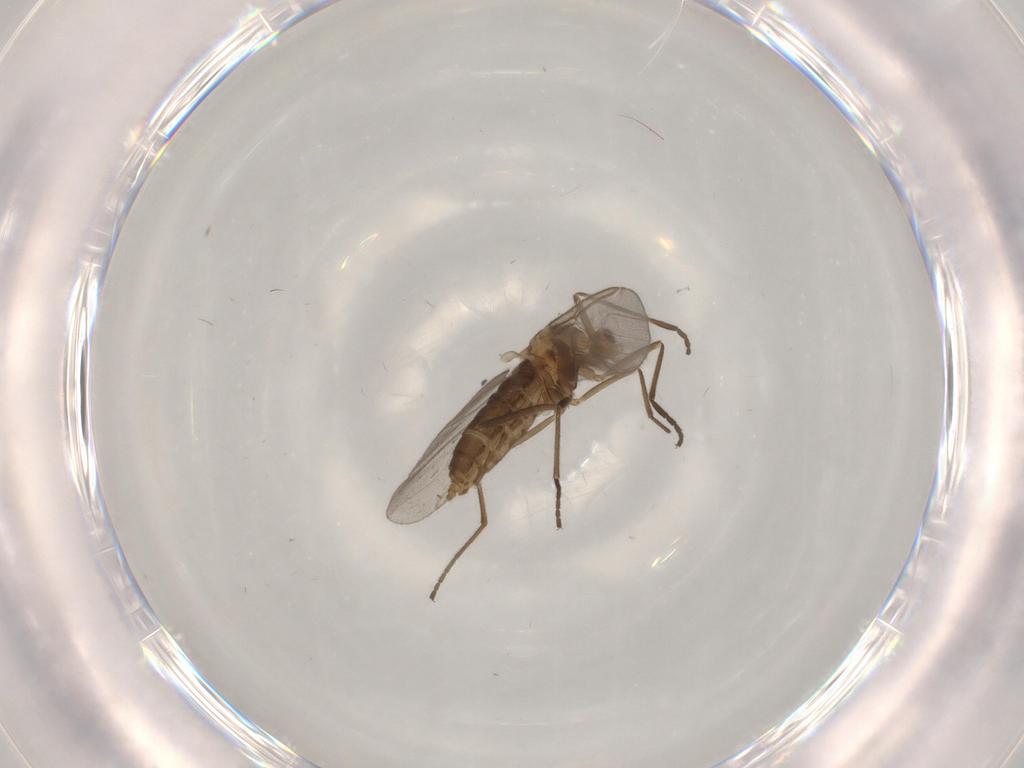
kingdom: Animalia
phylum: Arthropoda
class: Insecta
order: Diptera
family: Cecidomyiidae
